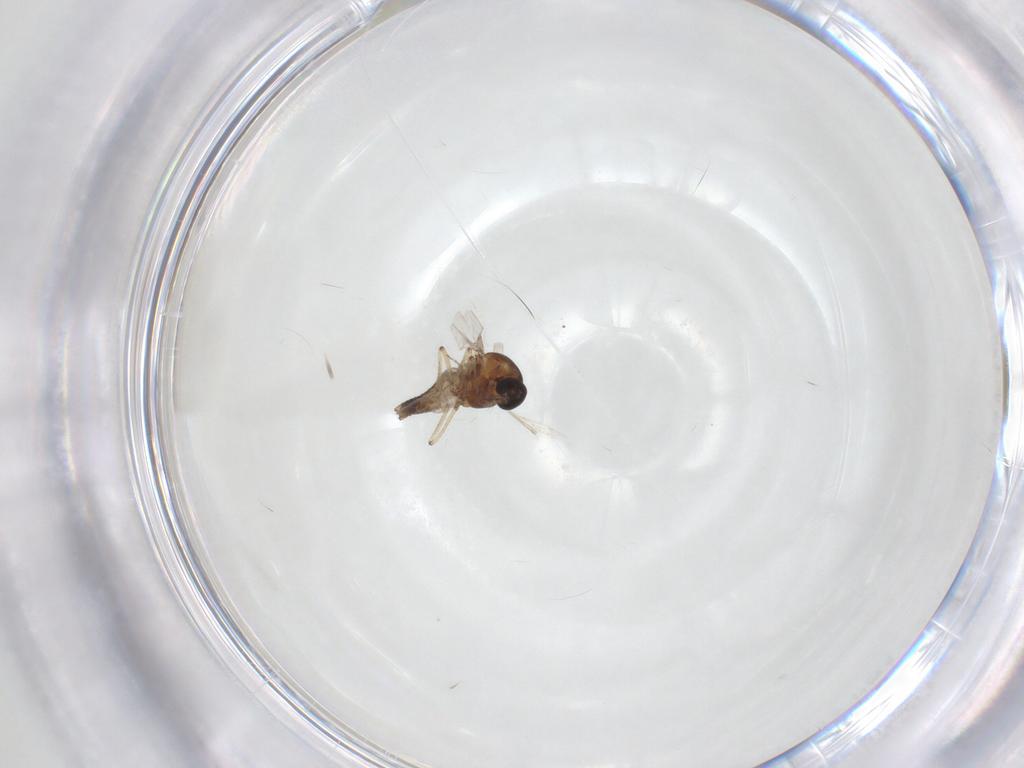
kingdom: Animalia
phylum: Arthropoda
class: Insecta
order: Diptera
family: Ceratopogonidae
